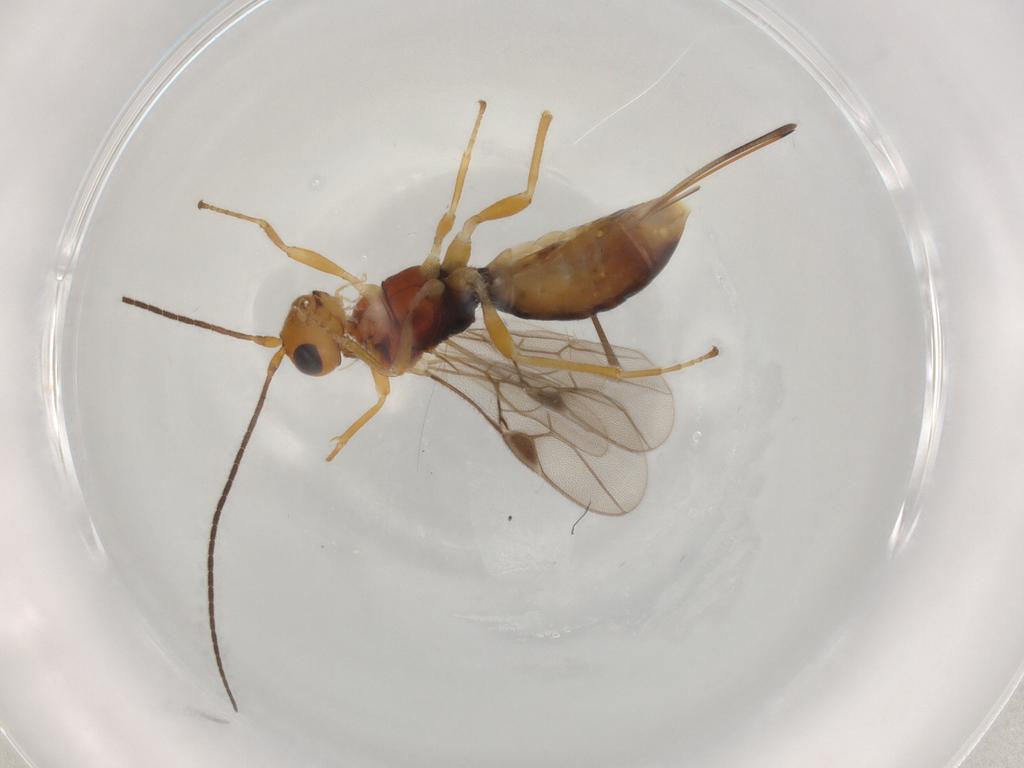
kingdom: Animalia
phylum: Arthropoda
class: Insecta
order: Hymenoptera
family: Braconidae
